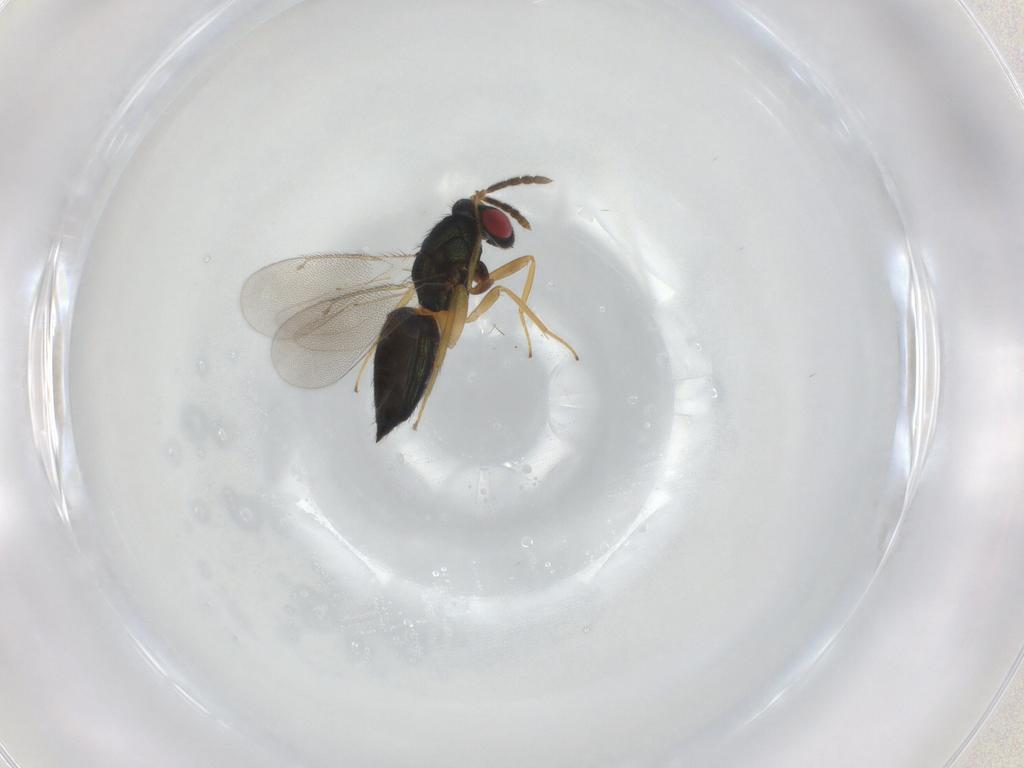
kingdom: Animalia
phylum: Arthropoda
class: Insecta
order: Hymenoptera
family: Eulophidae
